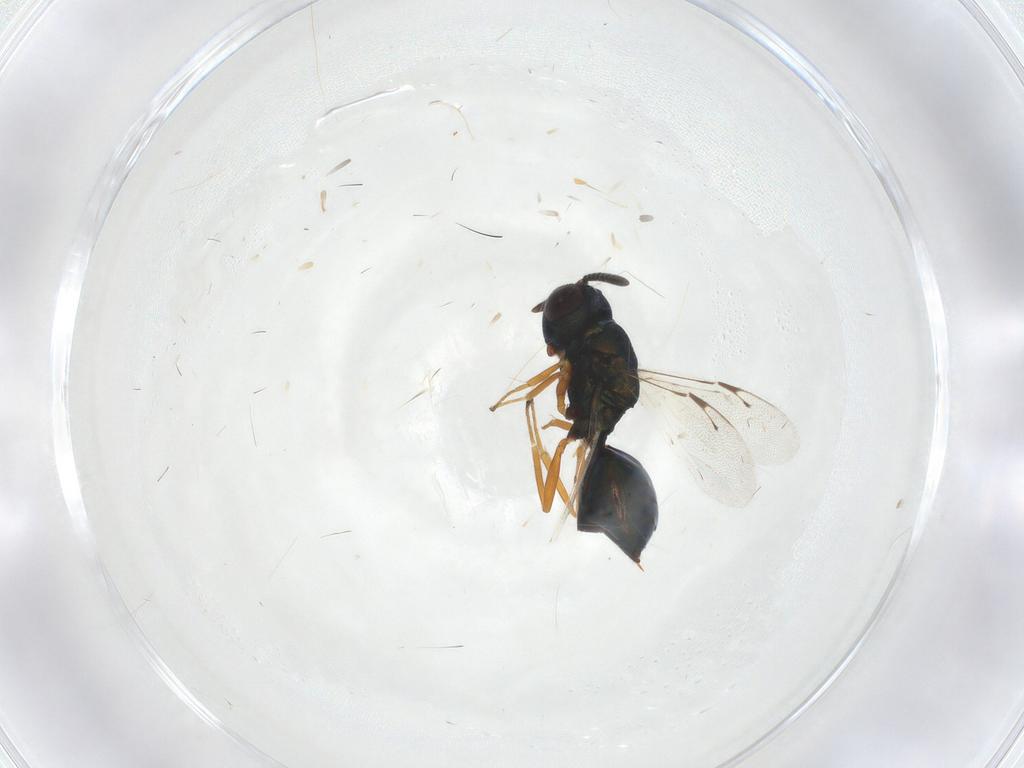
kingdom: Animalia
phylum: Arthropoda
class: Insecta
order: Hymenoptera
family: Pteromalidae
